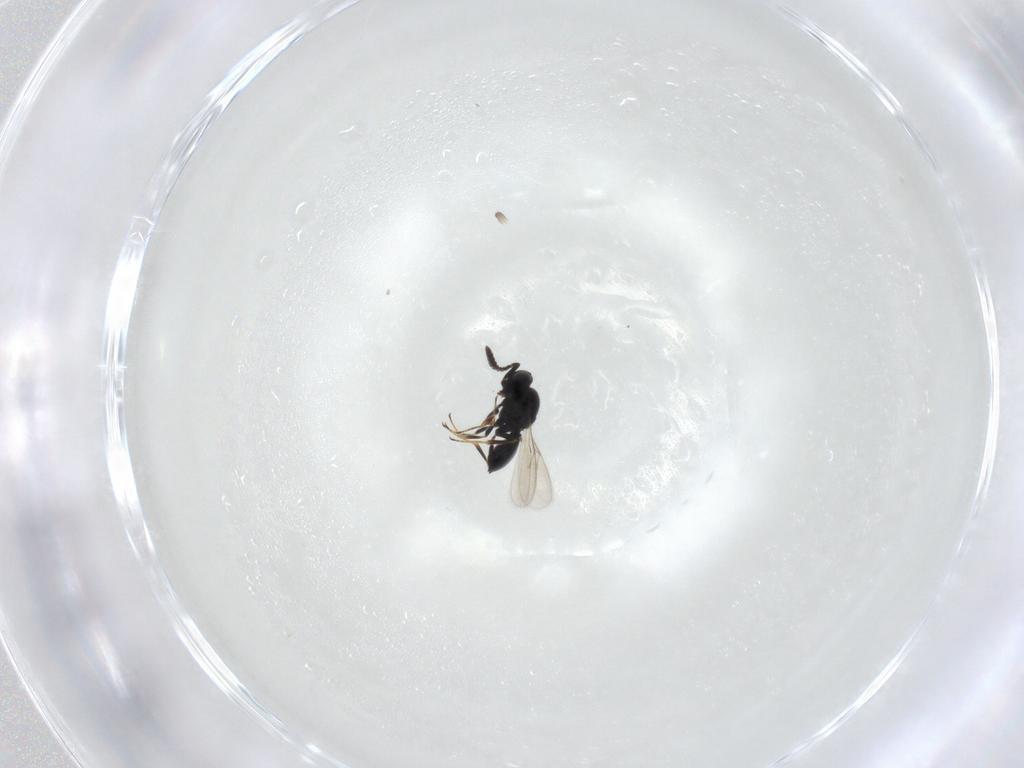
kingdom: Animalia
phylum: Arthropoda
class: Insecta
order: Hymenoptera
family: Scelionidae
